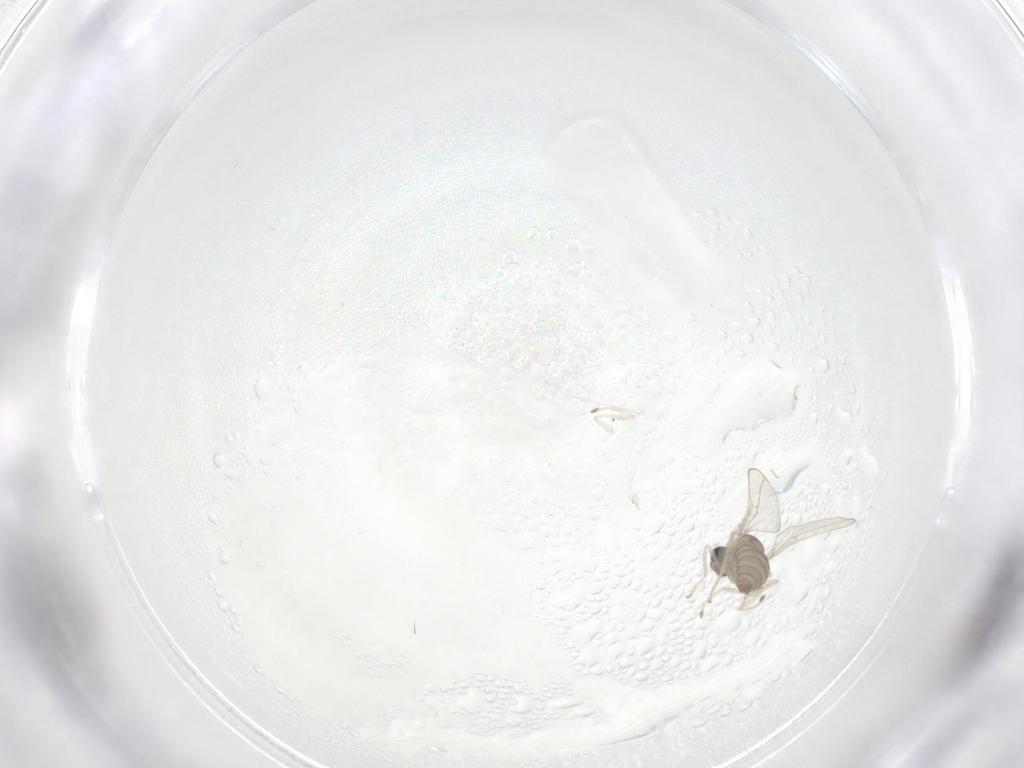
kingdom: Animalia
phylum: Arthropoda
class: Insecta
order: Diptera
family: Cecidomyiidae
